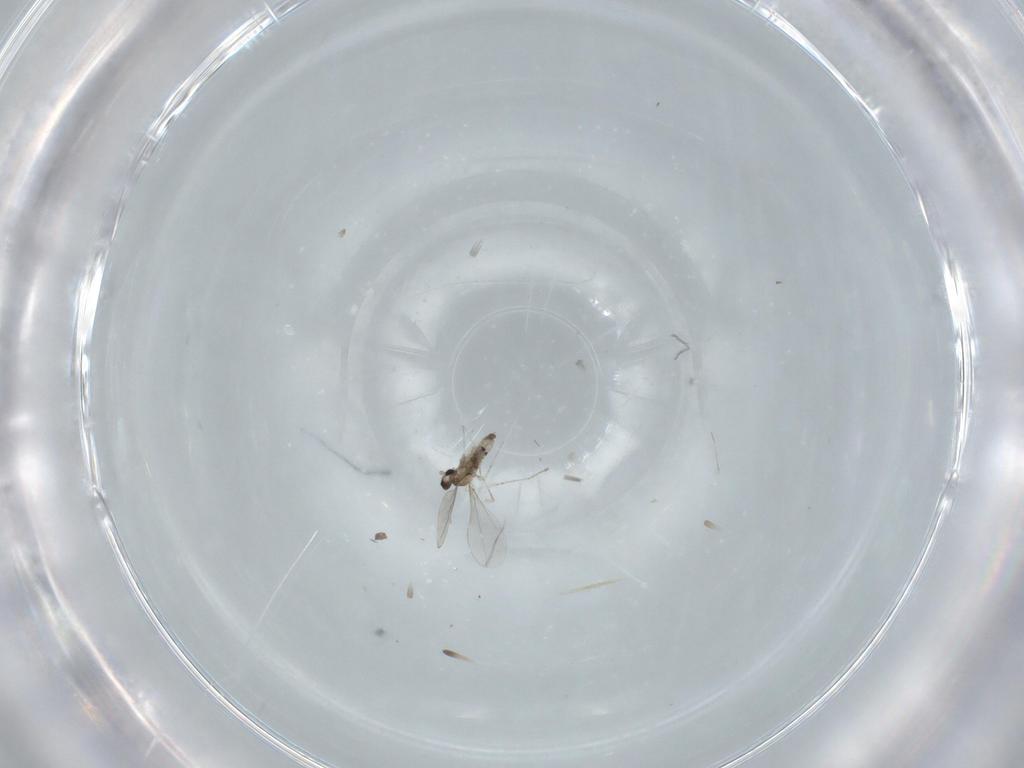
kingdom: Animalia
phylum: Arthropoda
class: Insecta
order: Diptera
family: Cecidomyiidae
